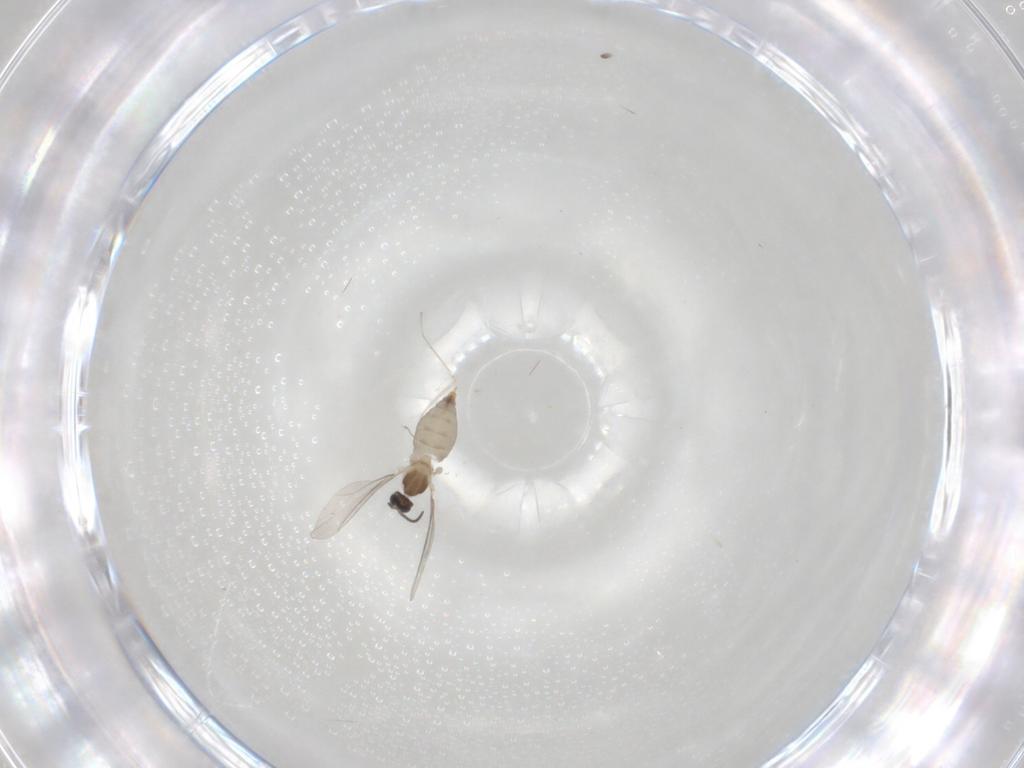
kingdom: Animalia
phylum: Arthropoda
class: Insecta
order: Diptera
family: Cecidomyiidae
